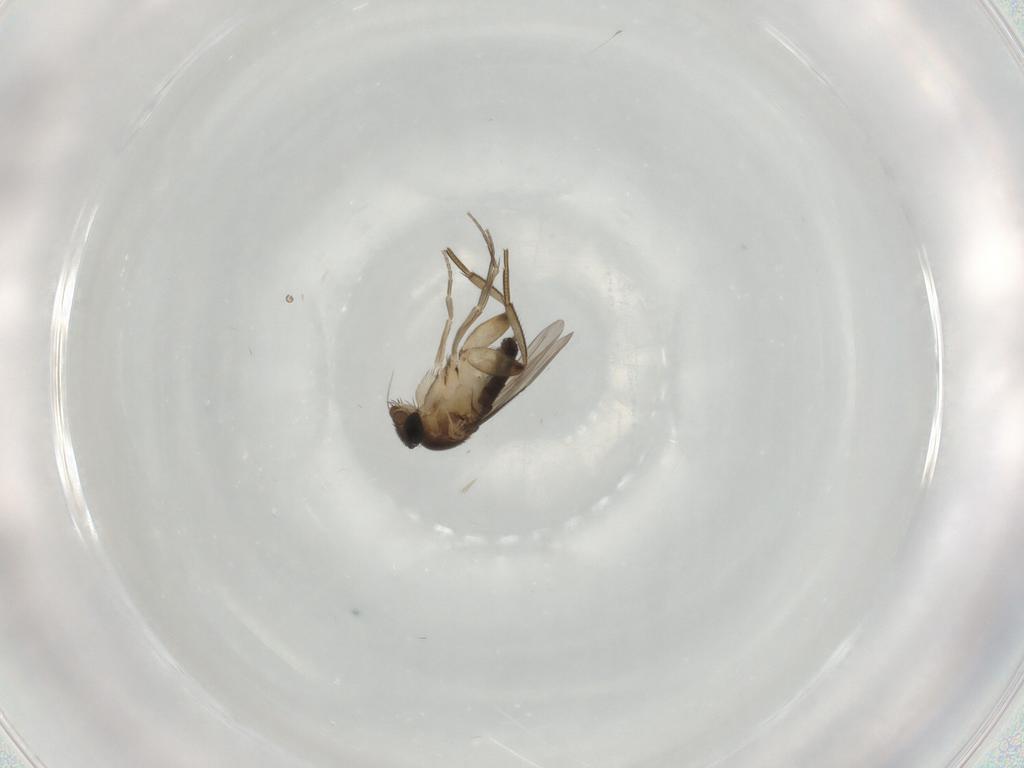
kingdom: Animalia
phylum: Arthropoda
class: Insecta
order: Diptera
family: Phoridae
